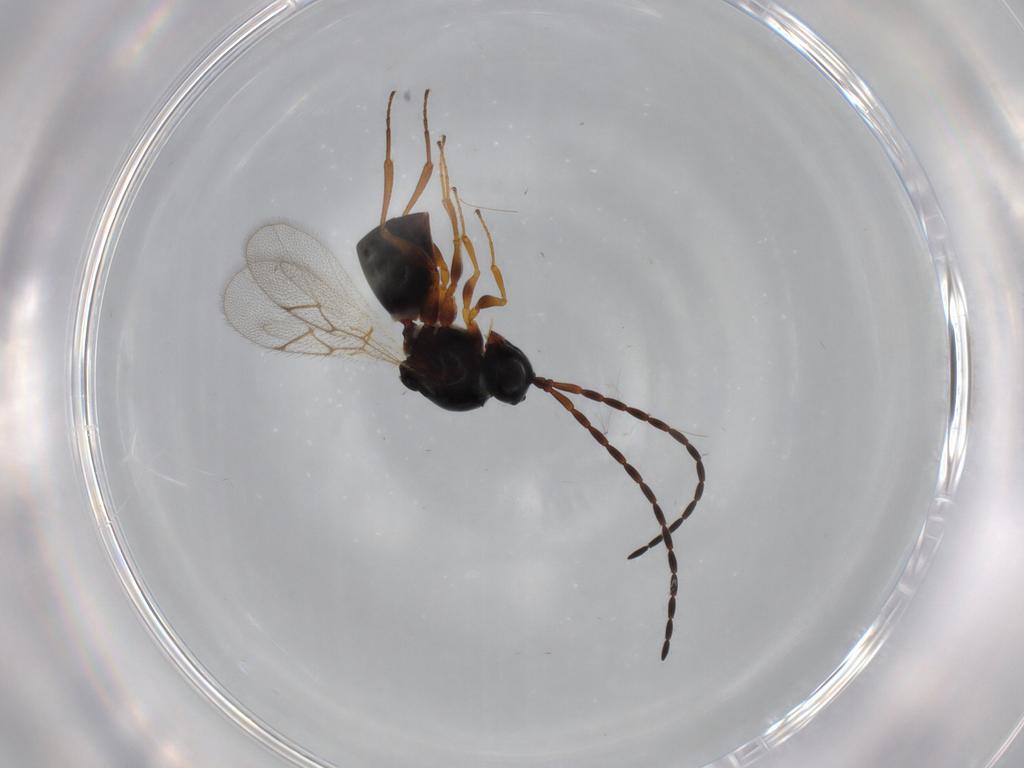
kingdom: Animalia
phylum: Arthropoda
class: Insecta
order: Hymenoptera
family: Figitidae
